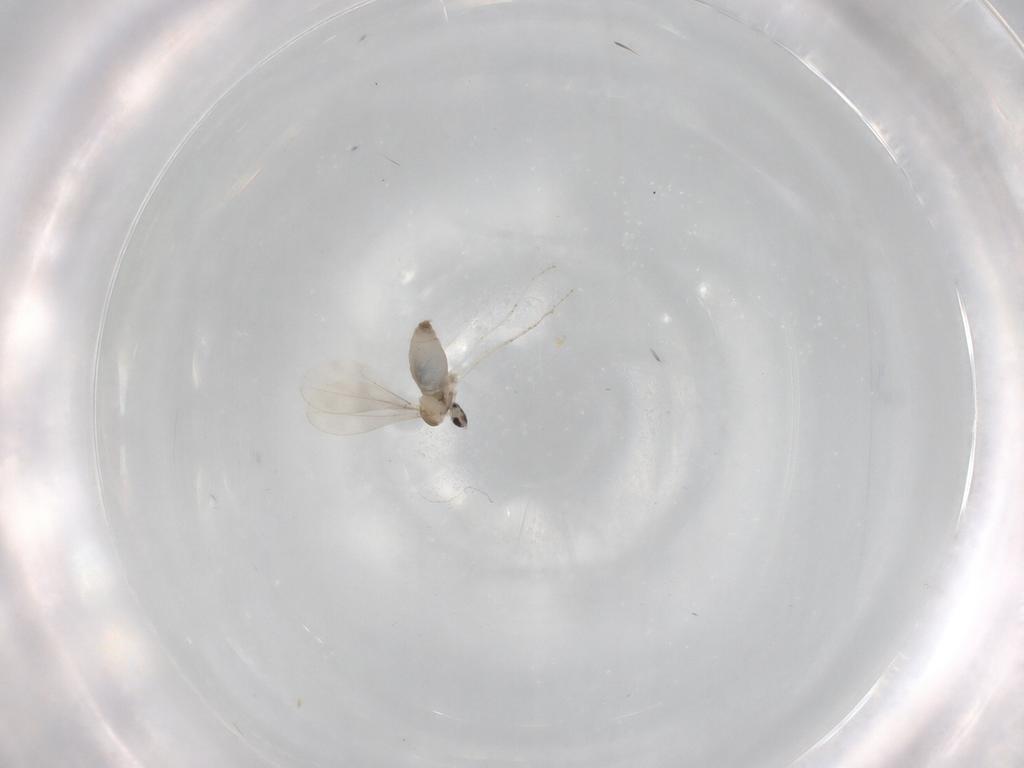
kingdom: Animalia
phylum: Arthropoda
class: Insecta
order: Diptera
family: Cecidomyiidae
